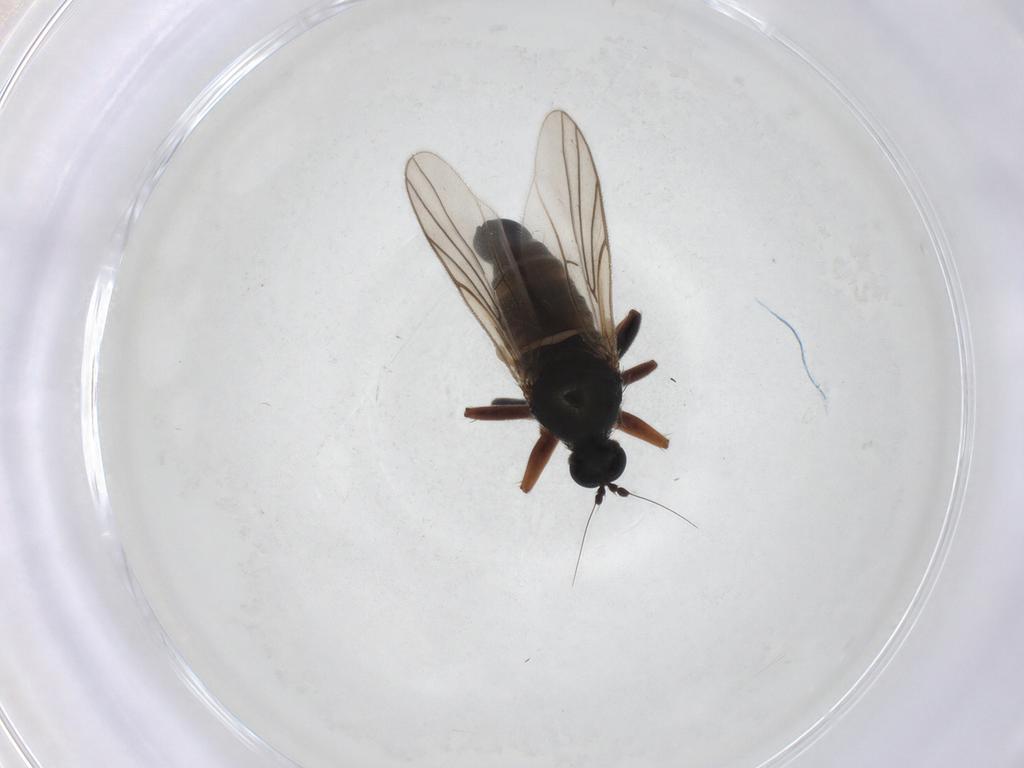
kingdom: Animalia
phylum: Arthropoda
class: Insecta
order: Diptera
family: Hybotidae
